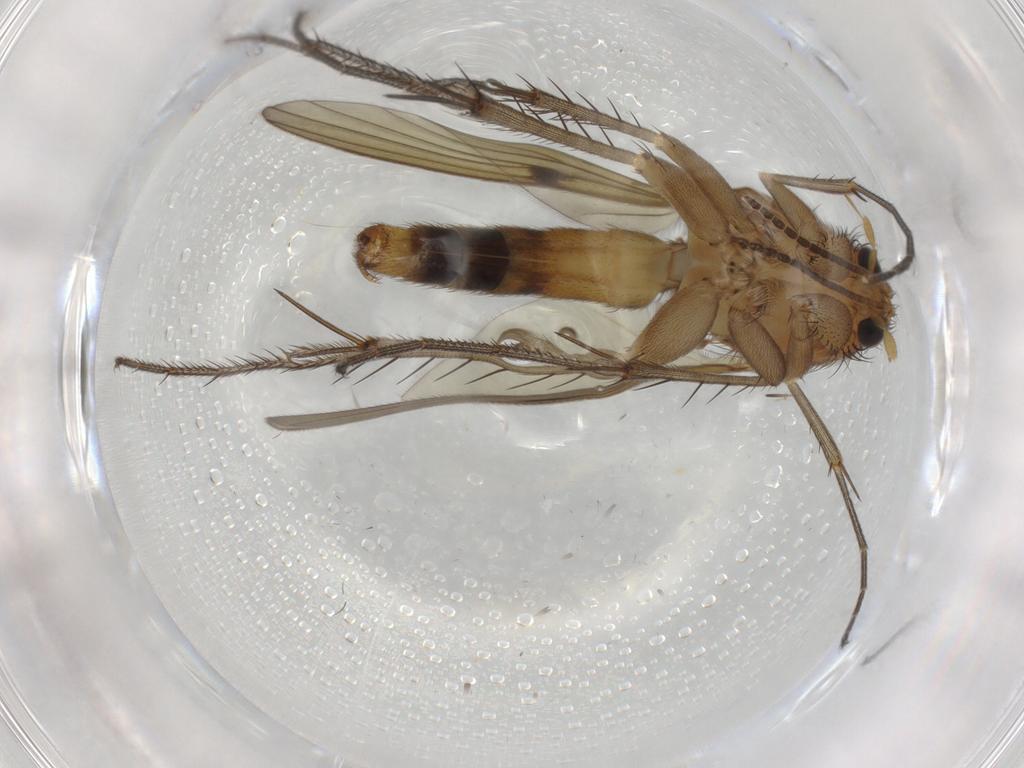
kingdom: Animalia
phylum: Arthropoda
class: Insecta
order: Diptera
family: Mycetophilidae
